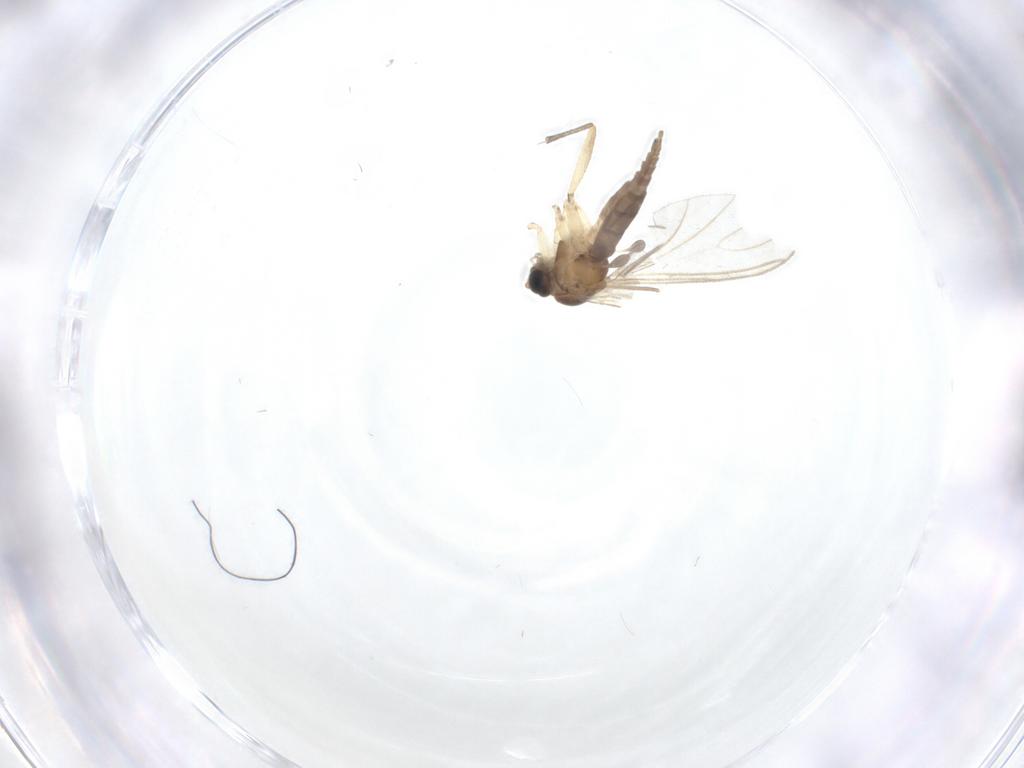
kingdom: Animalia
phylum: Arthropoda
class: Insecta
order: Diptera
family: Sciaridae
